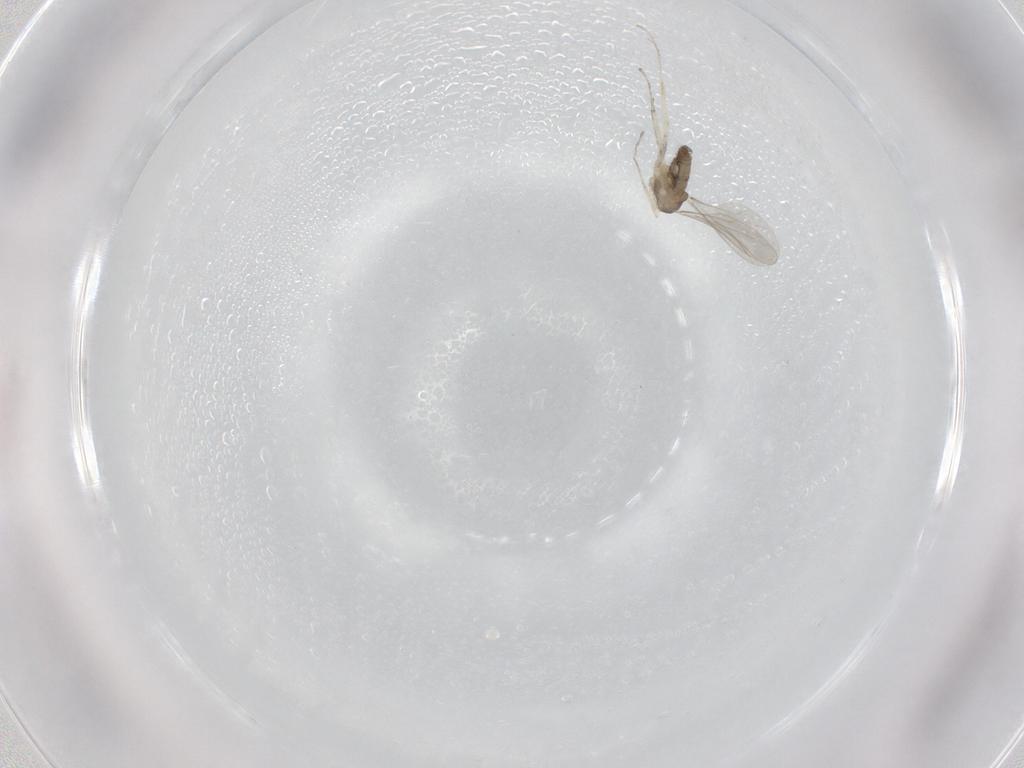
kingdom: Animalia
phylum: Arthropoda
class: Insecta
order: Diptera
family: Cecidomyiidae
